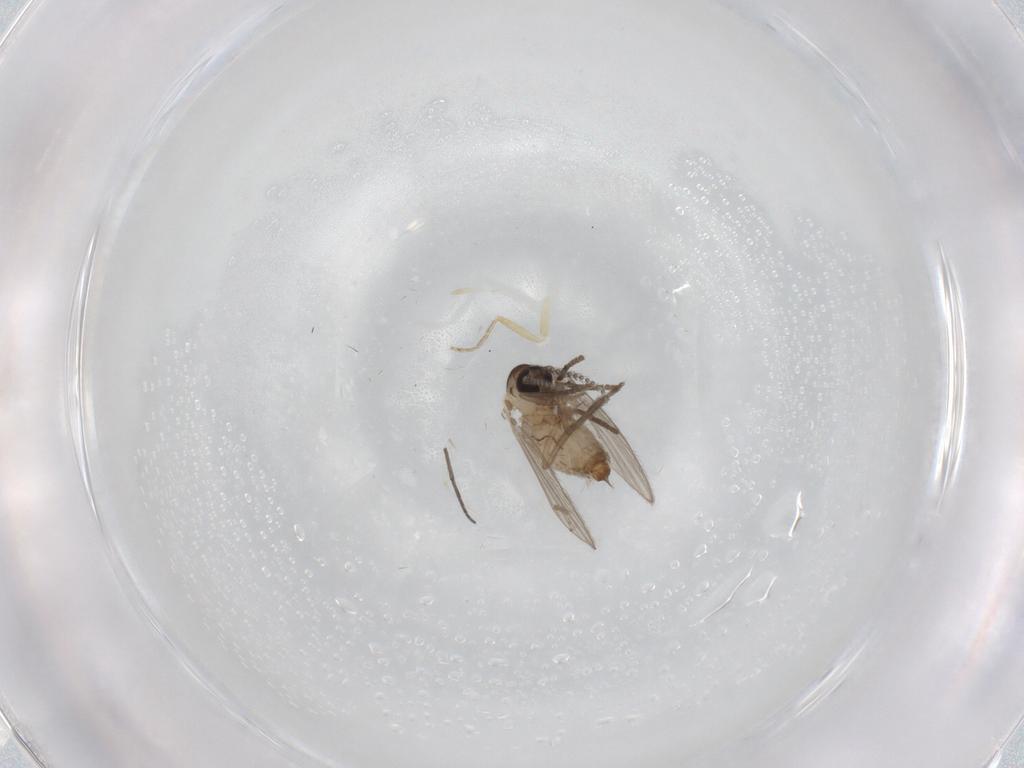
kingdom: Animalia
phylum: Arthropoda
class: Insecta
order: Diptera
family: Psychodidae
